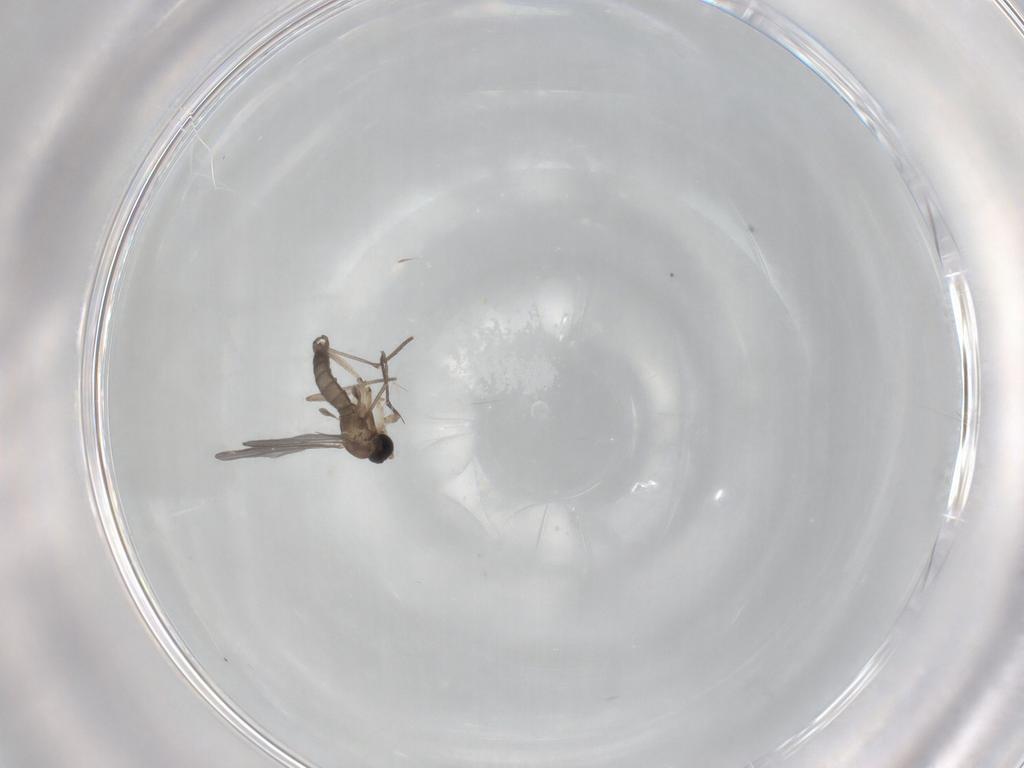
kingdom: Animalia
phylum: Arthropoda
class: Insecta
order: Diptera
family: Sciaridae
